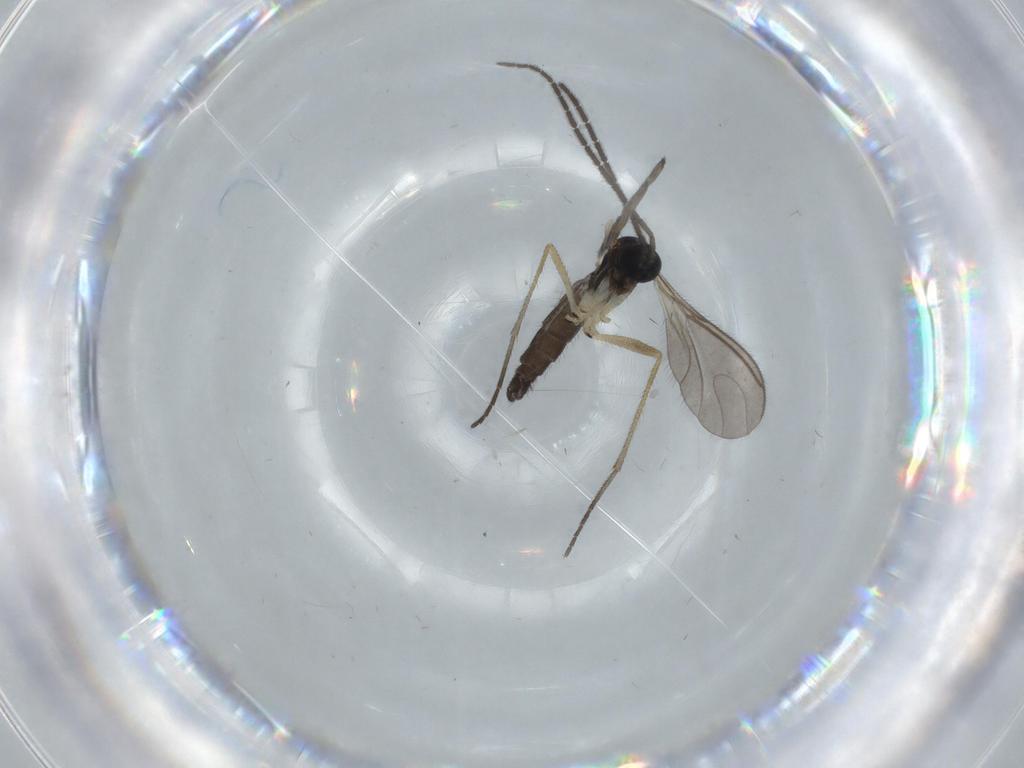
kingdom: Animalia
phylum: Arthropoda
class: Insecta
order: Diptera
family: Sciaridae
